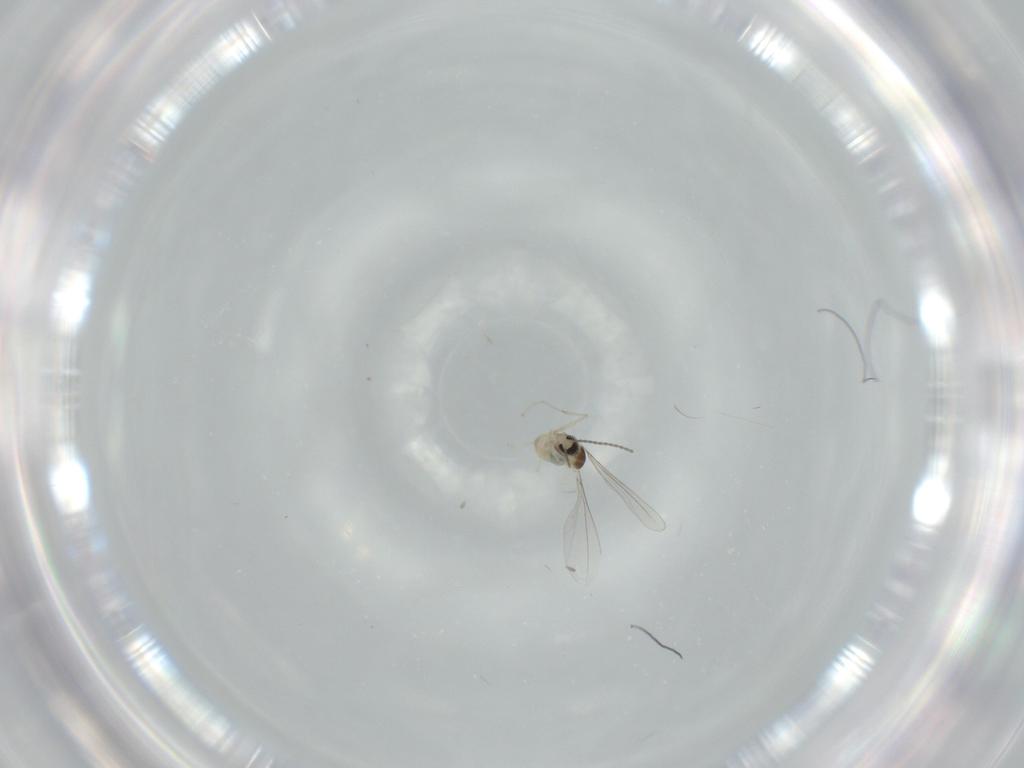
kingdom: Animalia
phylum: Arthropoda
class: Insecta
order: Diptera
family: Cecidomyiidae
